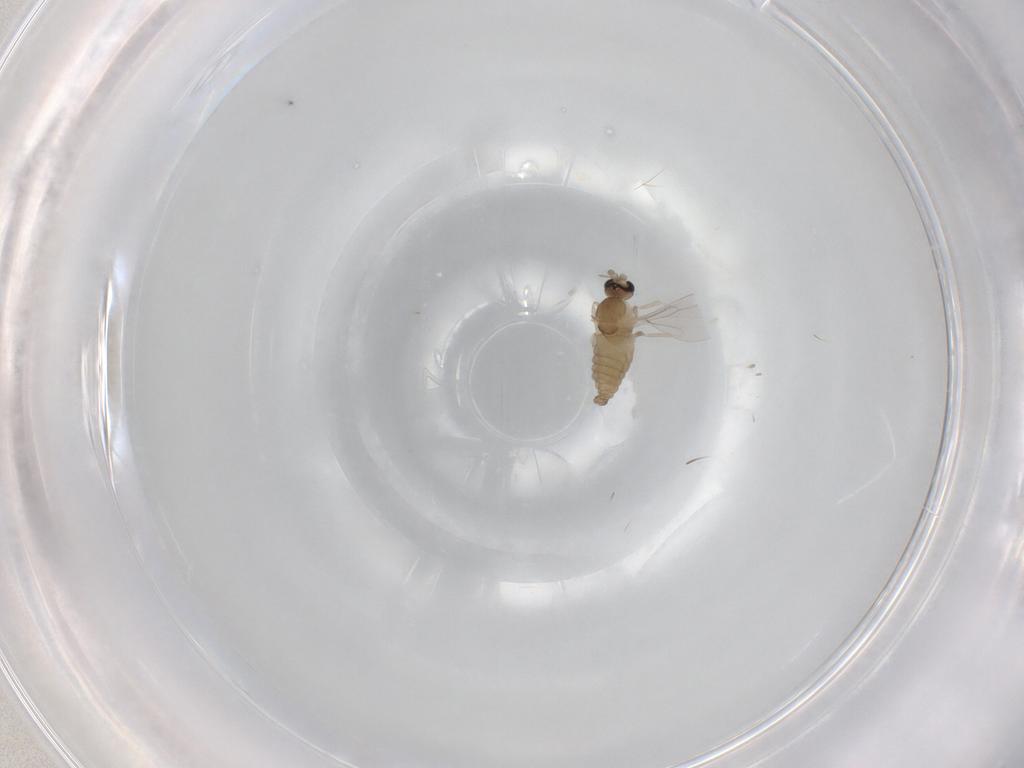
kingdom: Animalia
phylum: Arthropoda
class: Insecta
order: Diptera
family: Cecidomyiidae
